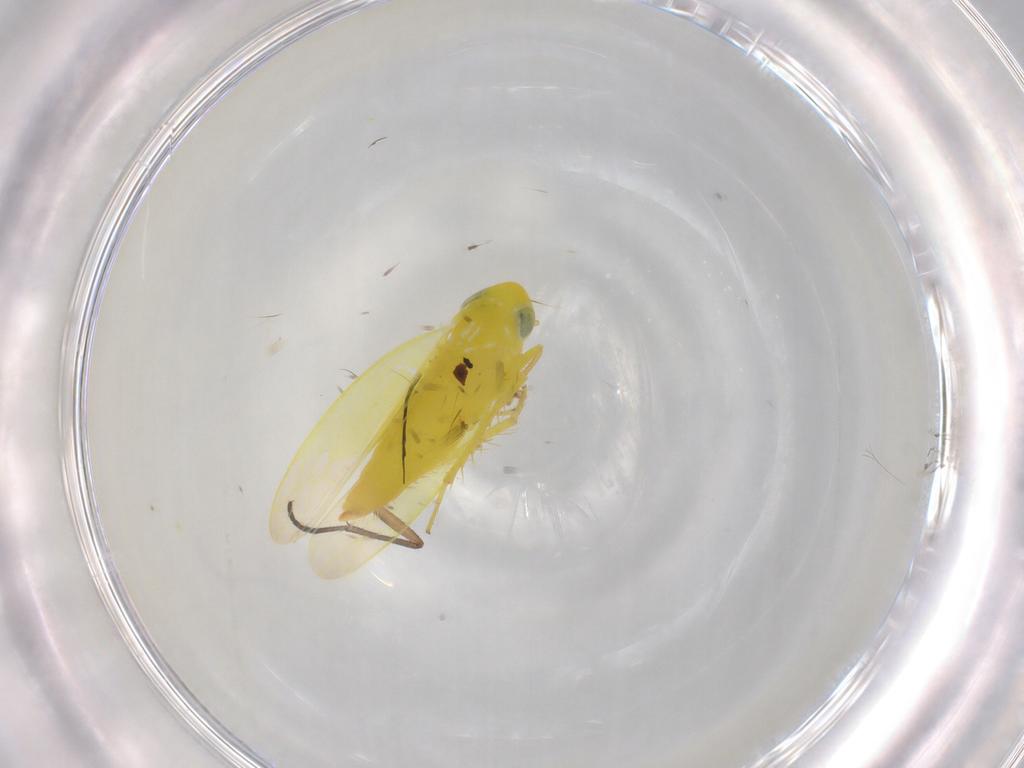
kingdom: Animalia
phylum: Arthropoda
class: Insecta
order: Hemiptera
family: Cicadellidae
